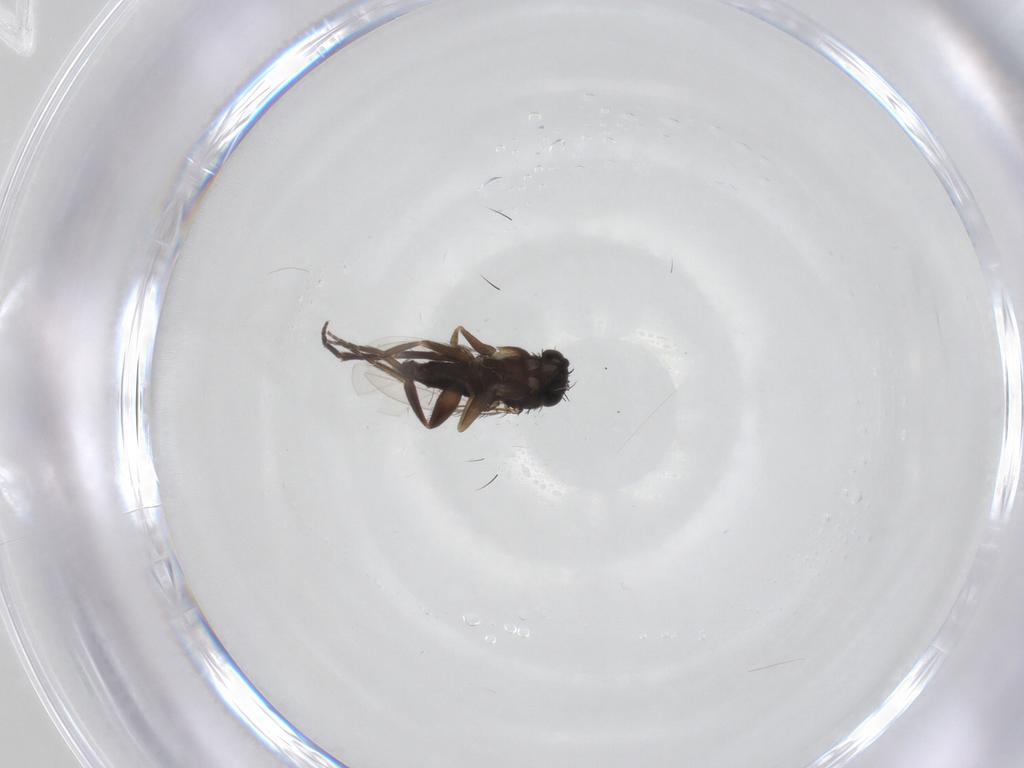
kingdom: Animalia
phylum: Arthropoda
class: Insecta
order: Diptera
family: Phoridae
